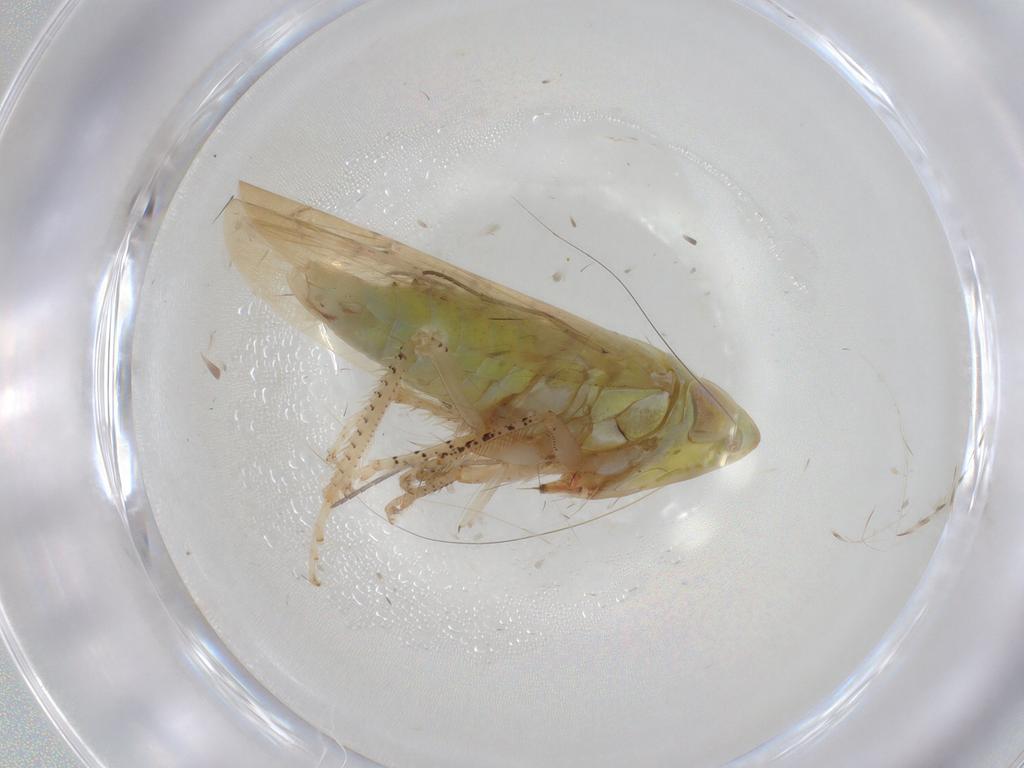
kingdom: Animalia
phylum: Arthropoda
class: Insecta
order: Hemiptera
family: Cicadellidae
